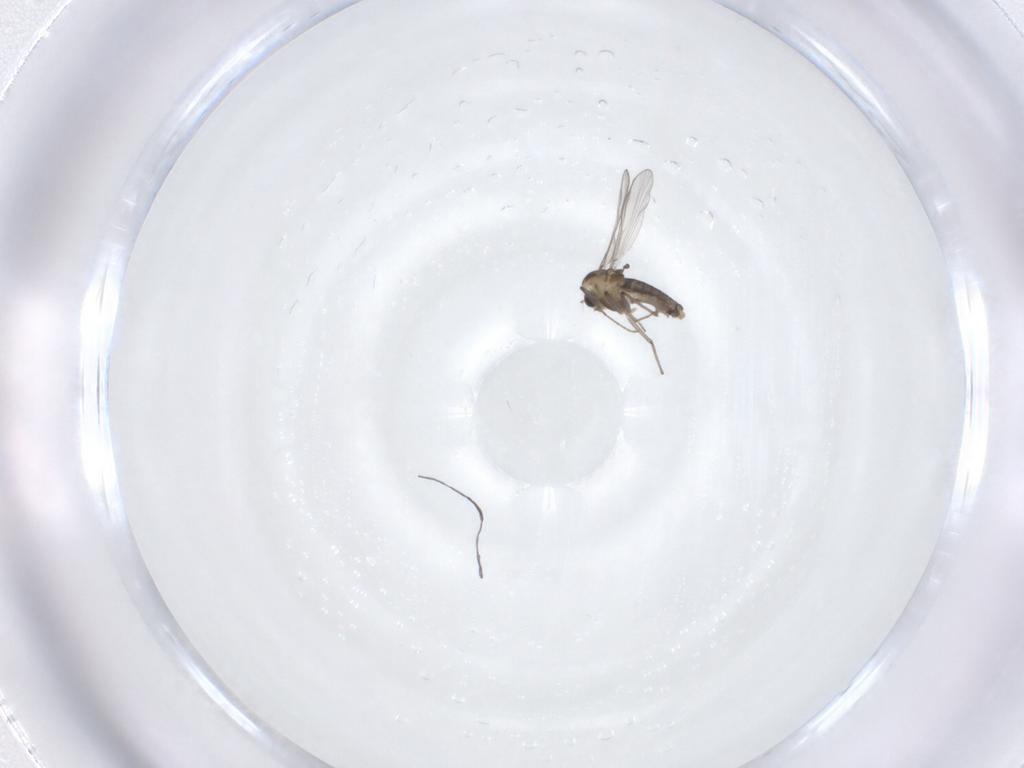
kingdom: Animalia
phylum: Arthropoda
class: Insecta
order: Diptera
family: Chironomidae
